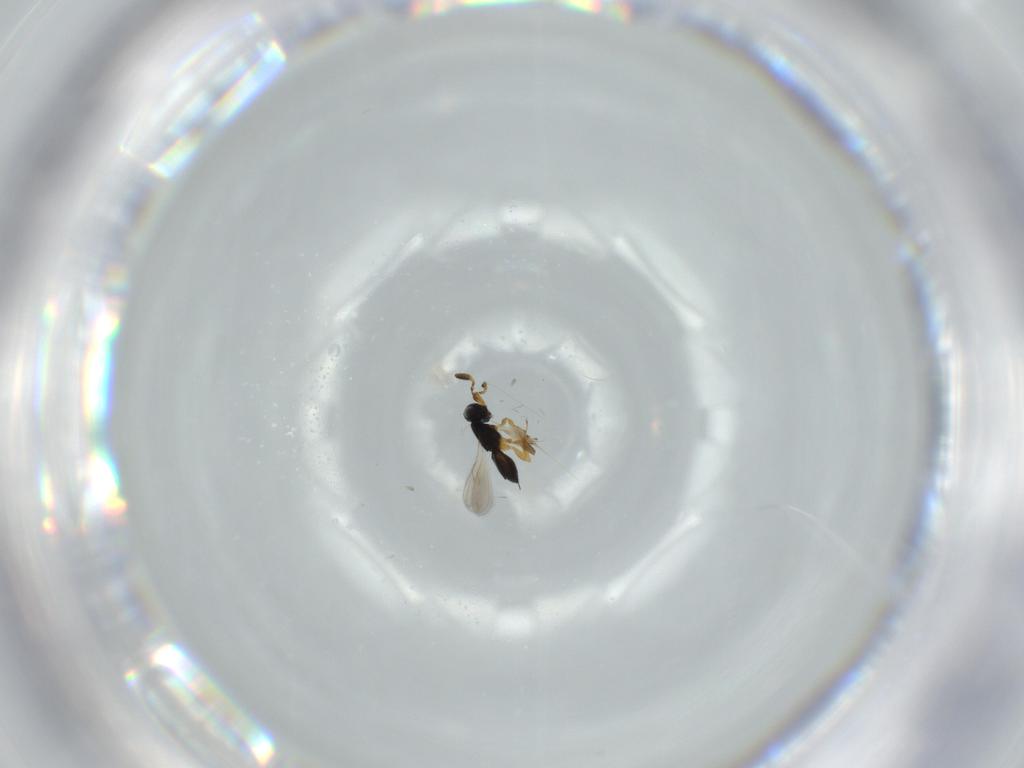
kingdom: Animalia
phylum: Arthropoda
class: Insecta
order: Hymenoptera
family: Scelionidae
